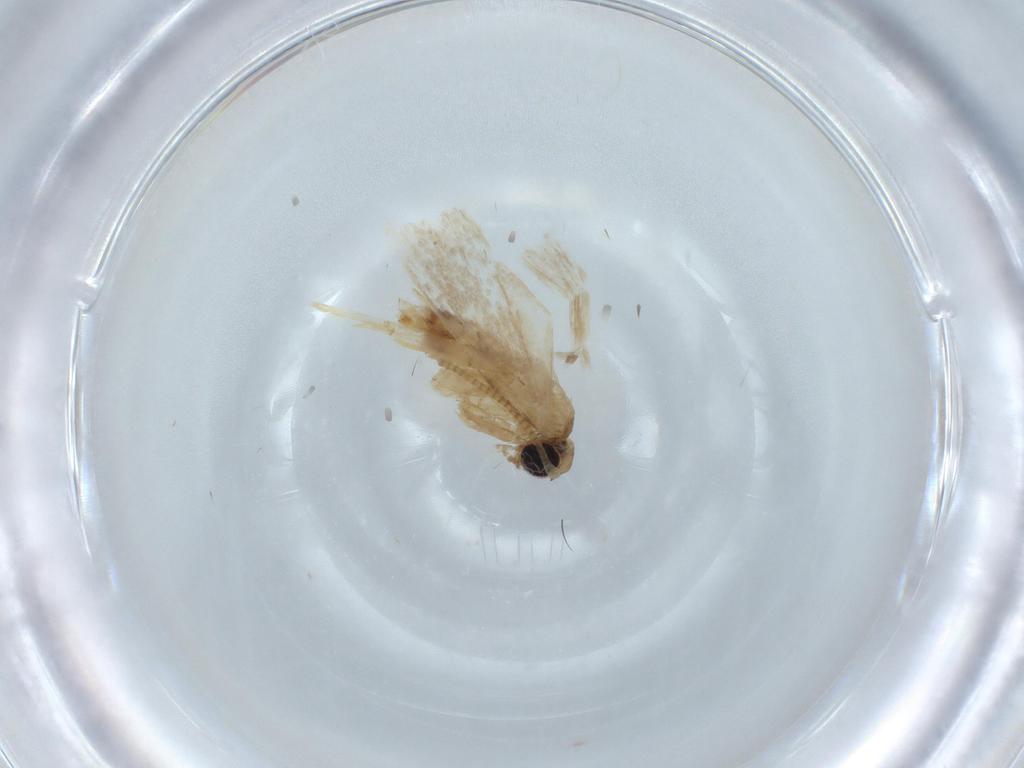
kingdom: Animalia
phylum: Arthropoda
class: Insecta
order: Lepidoptera
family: Tineidae
